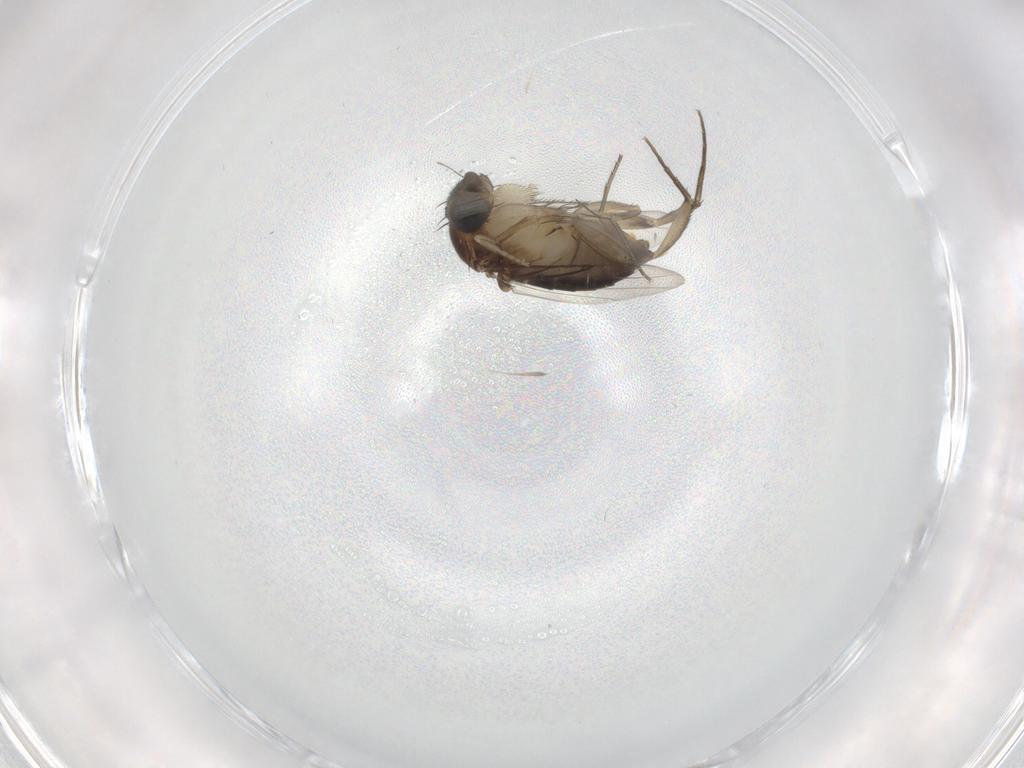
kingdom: Animalia
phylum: Arthropoda
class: Insecta
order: Diptera
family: Phoridae
